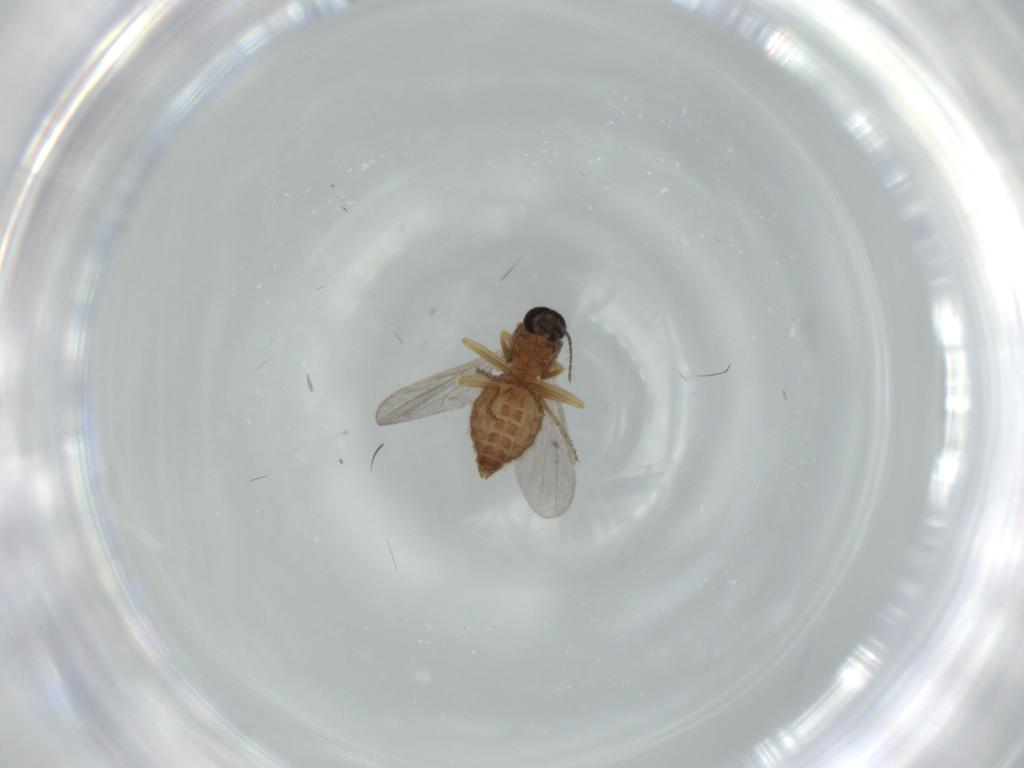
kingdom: Animalia
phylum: Arthropoda
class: Insecta
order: Diptera
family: Ceratopogonidae
